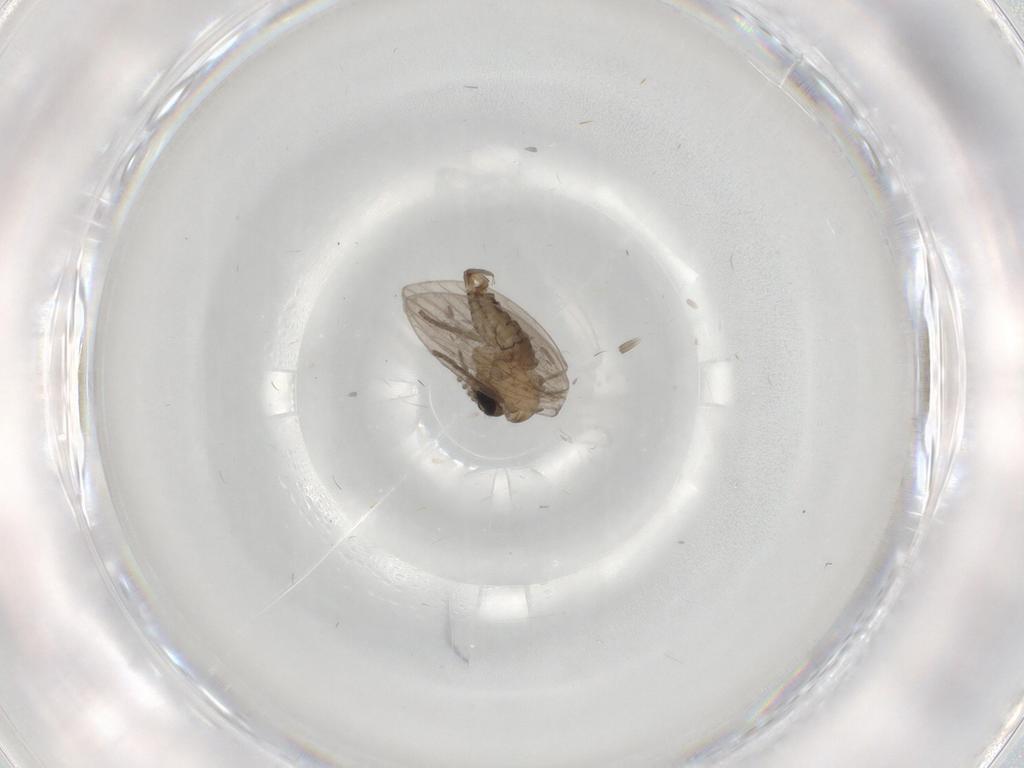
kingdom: Animalia
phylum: Arthropoda
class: Insecta
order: Diptera
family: Psychodidae
